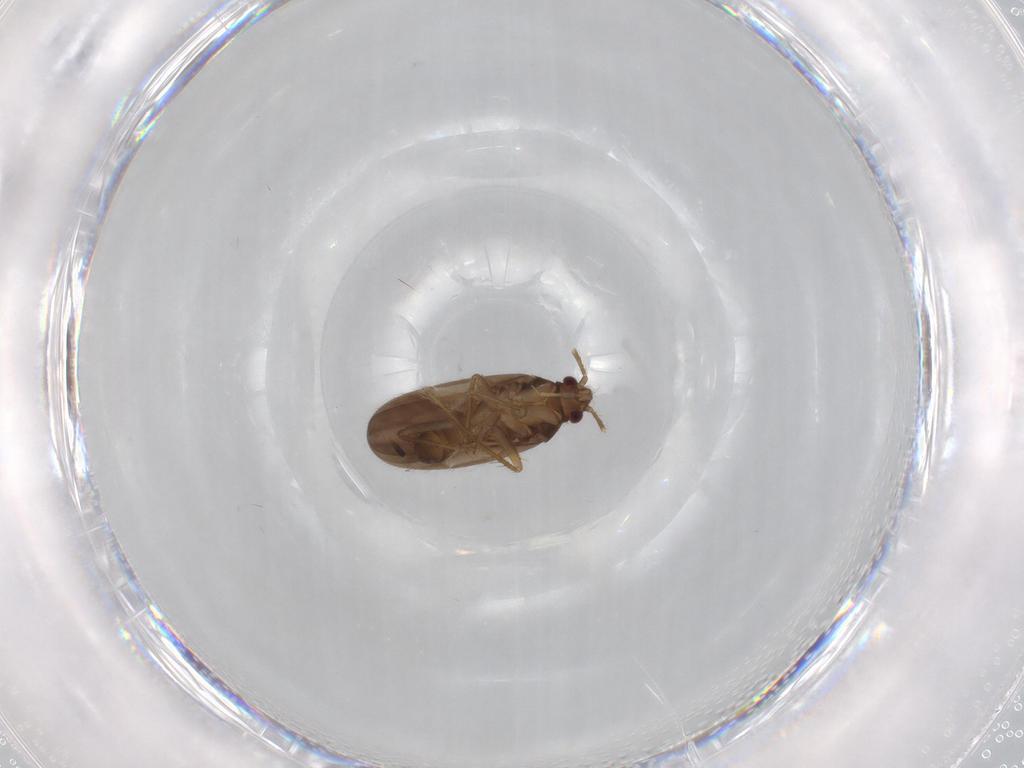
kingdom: Animalia
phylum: Arthropoda
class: Insecta
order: Hemiptera
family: Ceratocombidae
